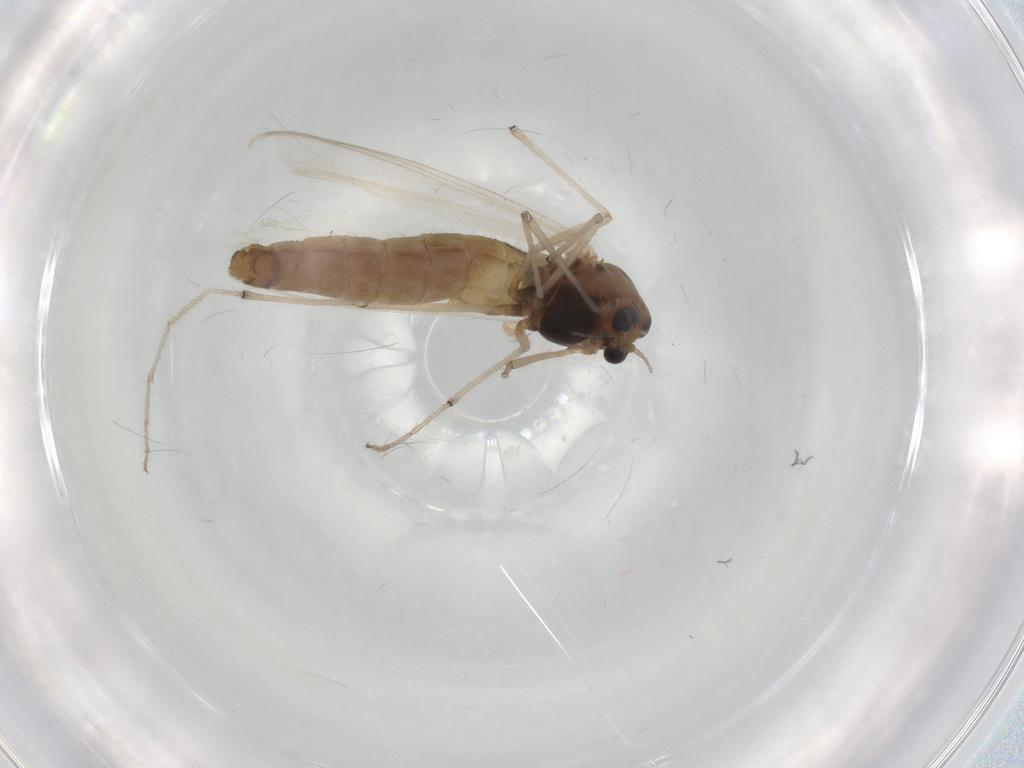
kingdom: Animalia
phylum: Arthropoda
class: Insecta
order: Diptera
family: Chironomidae
